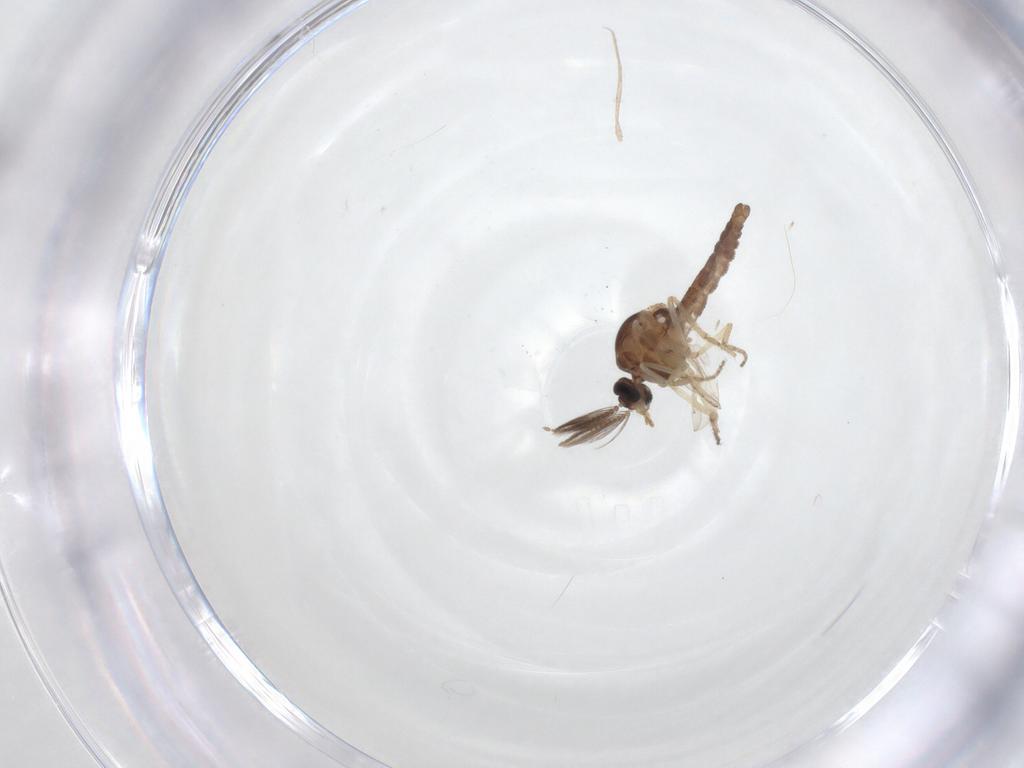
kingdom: Animalia
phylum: Arthropoda
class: Insecta
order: Diptera
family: Ceratopogonidae
